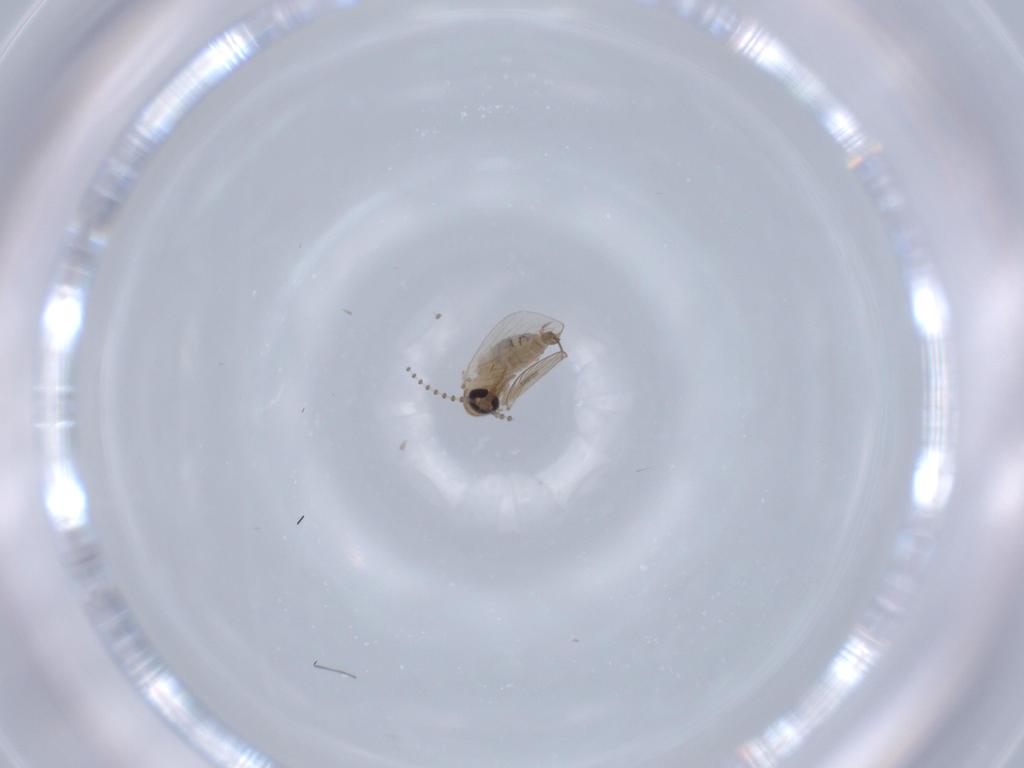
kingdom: Animalia
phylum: Arthropoda
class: Insecta
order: Diptera
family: Psychodidae
